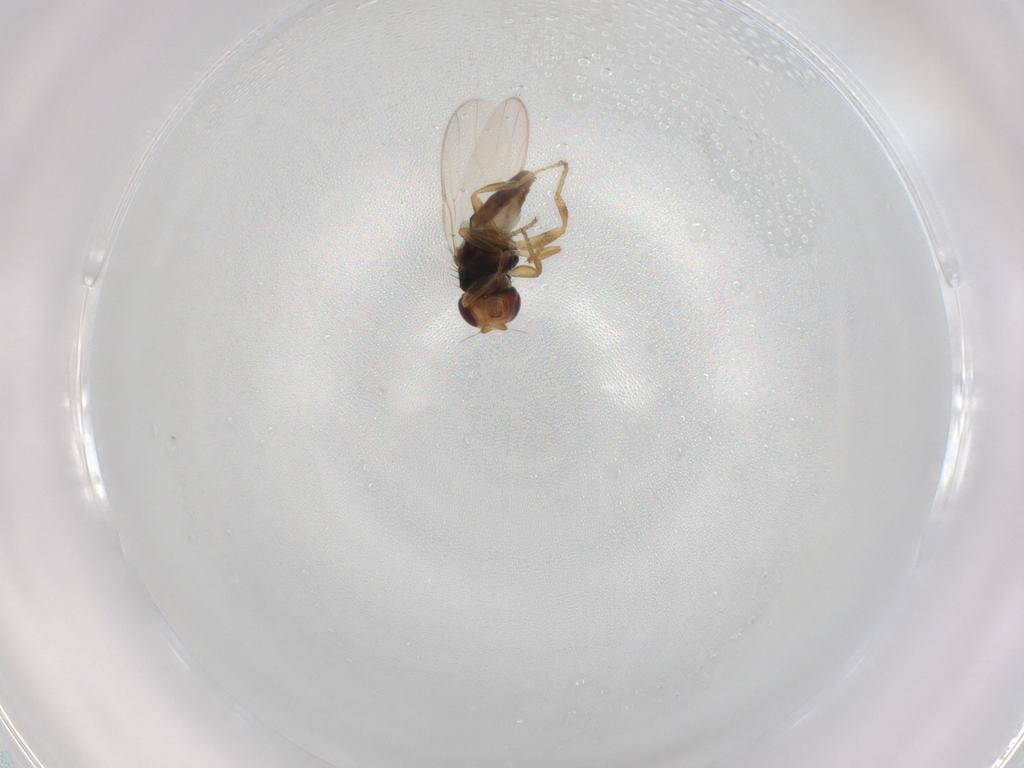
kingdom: Animalia
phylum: Arthropoda
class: Insecta
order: Diptera
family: Chloropidae
